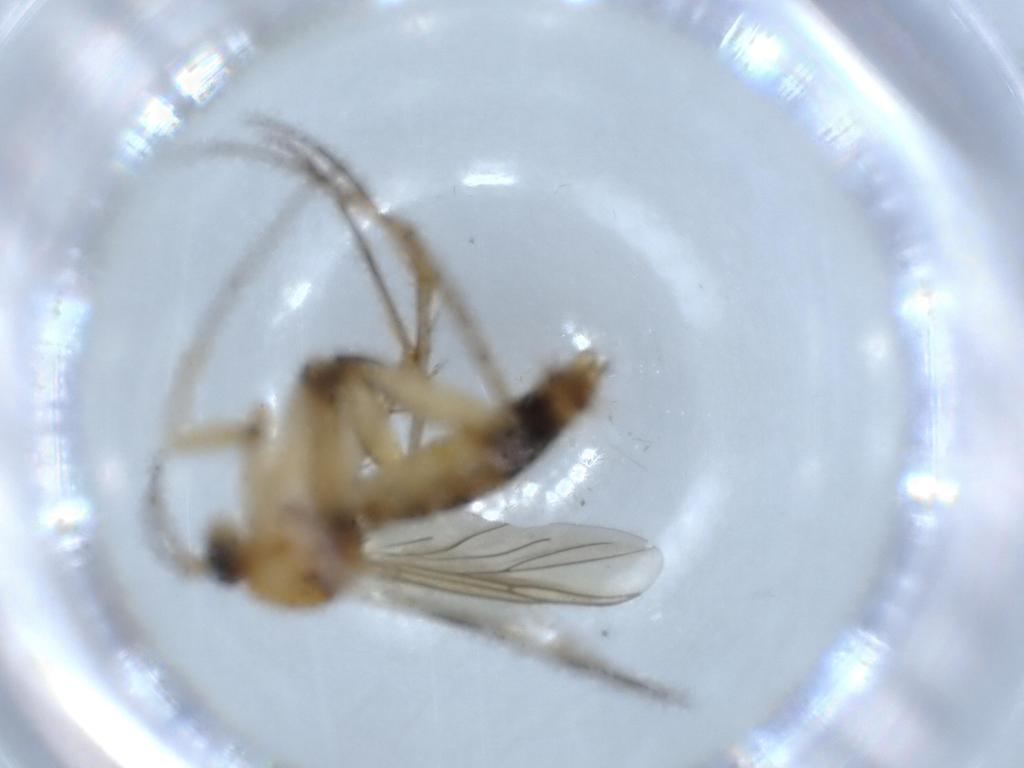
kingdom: Animalia
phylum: Arthropoda
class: Insecta
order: Diptera
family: Mycetophilidae
